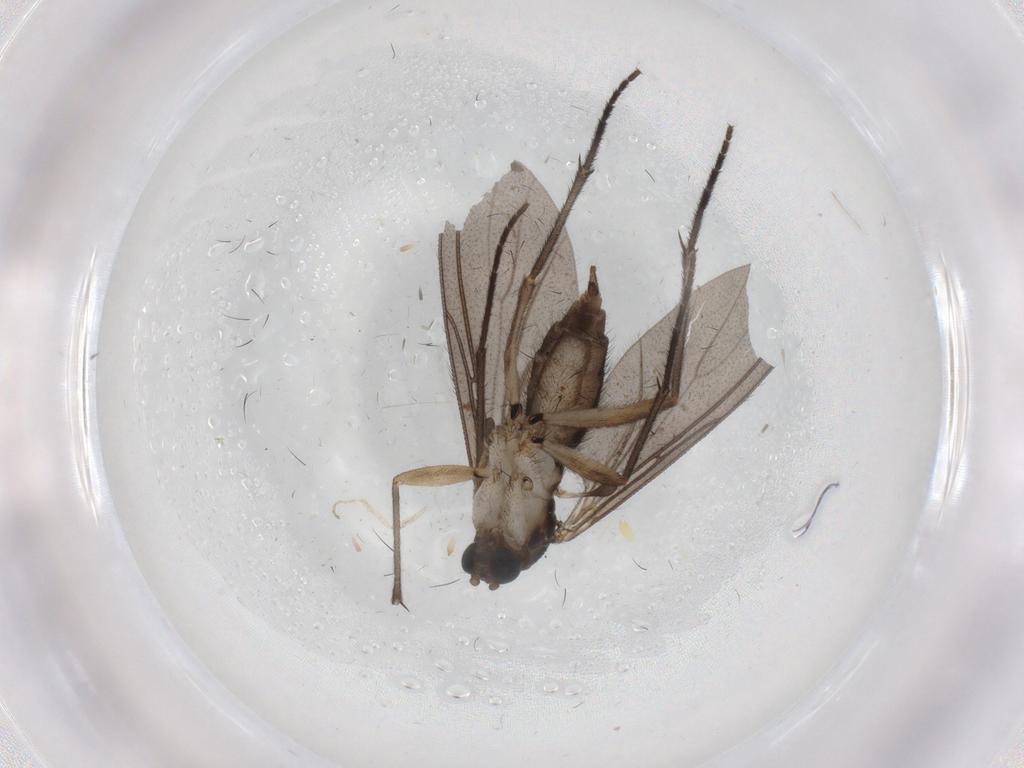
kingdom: Animalia
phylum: Arthropoda
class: Insecta
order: Diptera
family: Sciaridae
